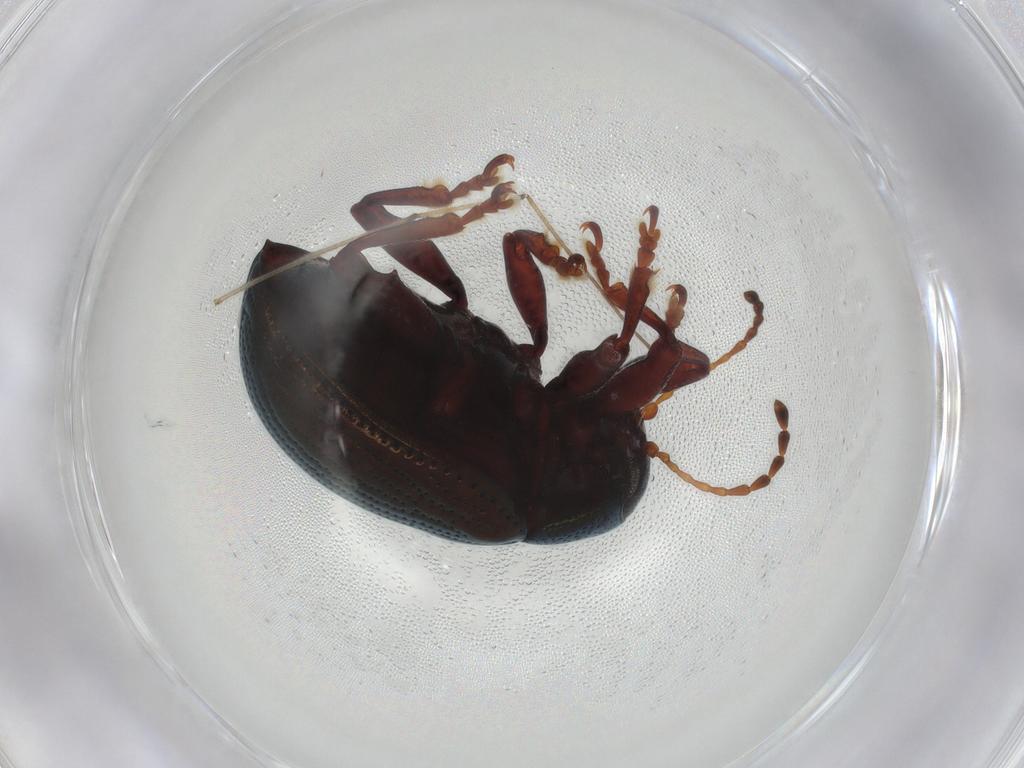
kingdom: Animalia
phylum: Arthropoda
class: Insecta
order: Coleoptera
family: Chrysomelidae
